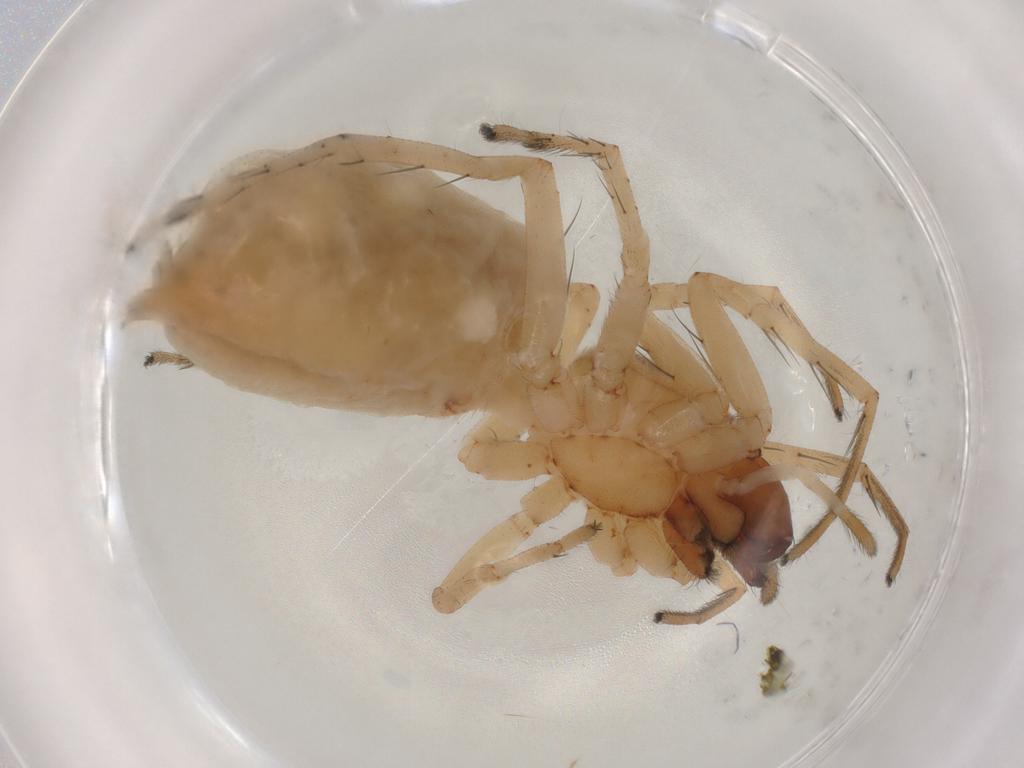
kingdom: Animalia
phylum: Arthropoda
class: Arachnida
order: Araneae
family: Anyphaenidae
